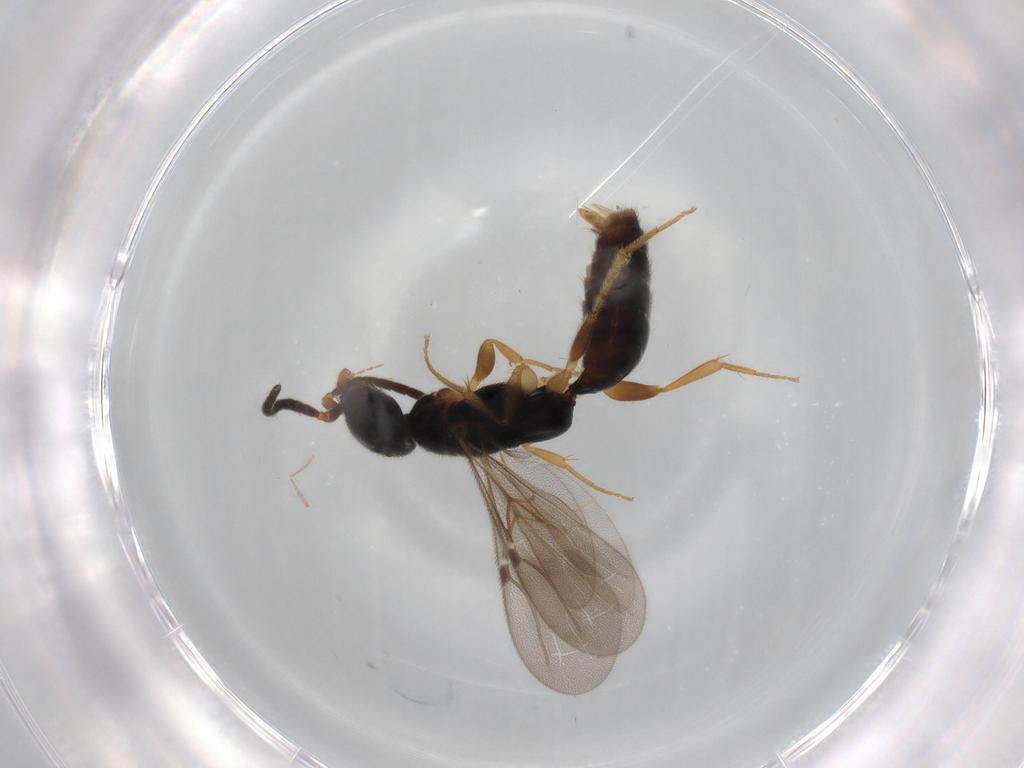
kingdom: Animalia
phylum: Arthropoda
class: Insecta
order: Hymenoptera
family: Bethylidae
